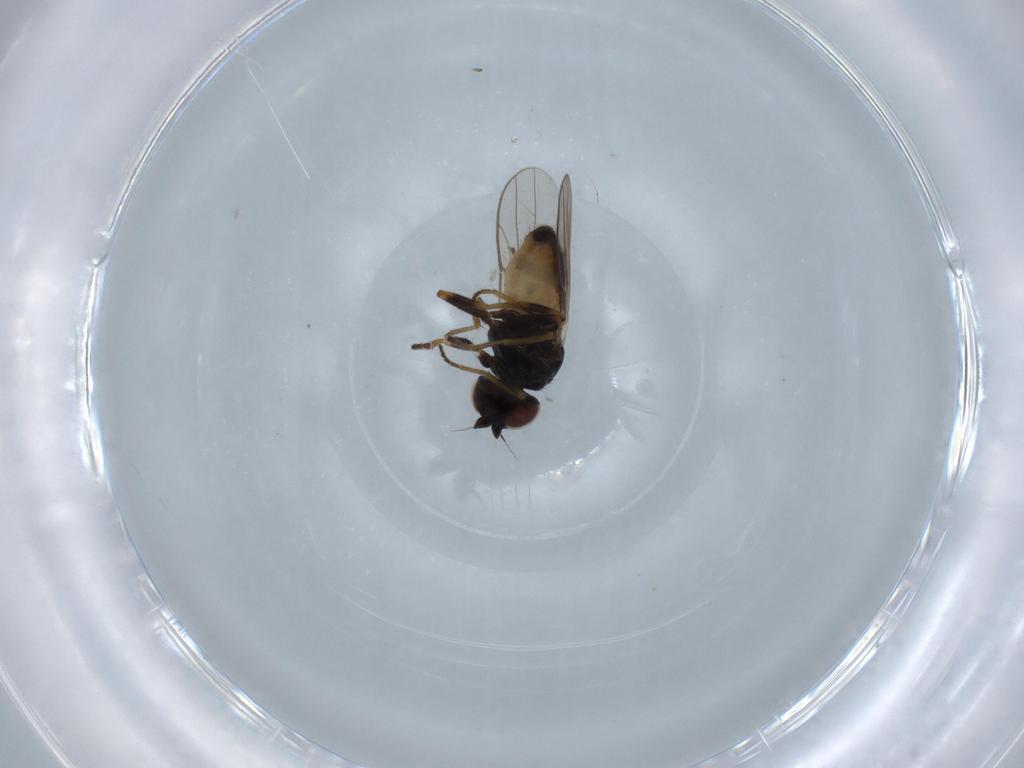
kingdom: Animalia
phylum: Arthropoda
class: Insecta
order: Diptera
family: Chloropidae
